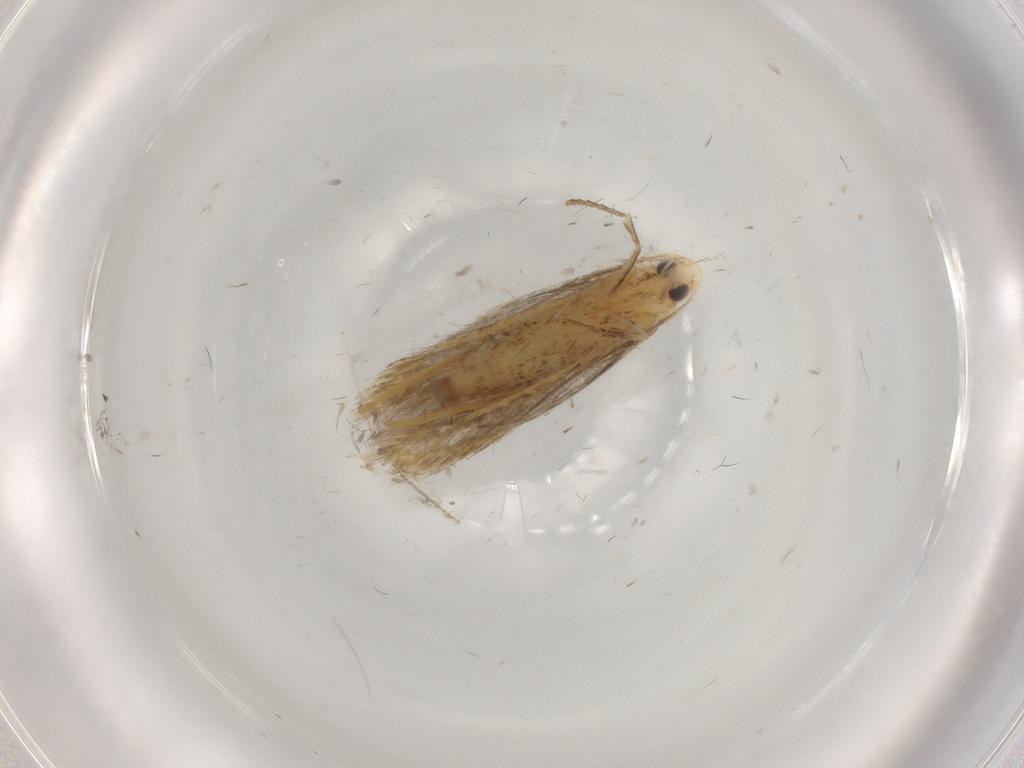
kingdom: Animalia
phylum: Arthropoda
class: Insecta
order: Lepidoptera
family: Tischeriidae
